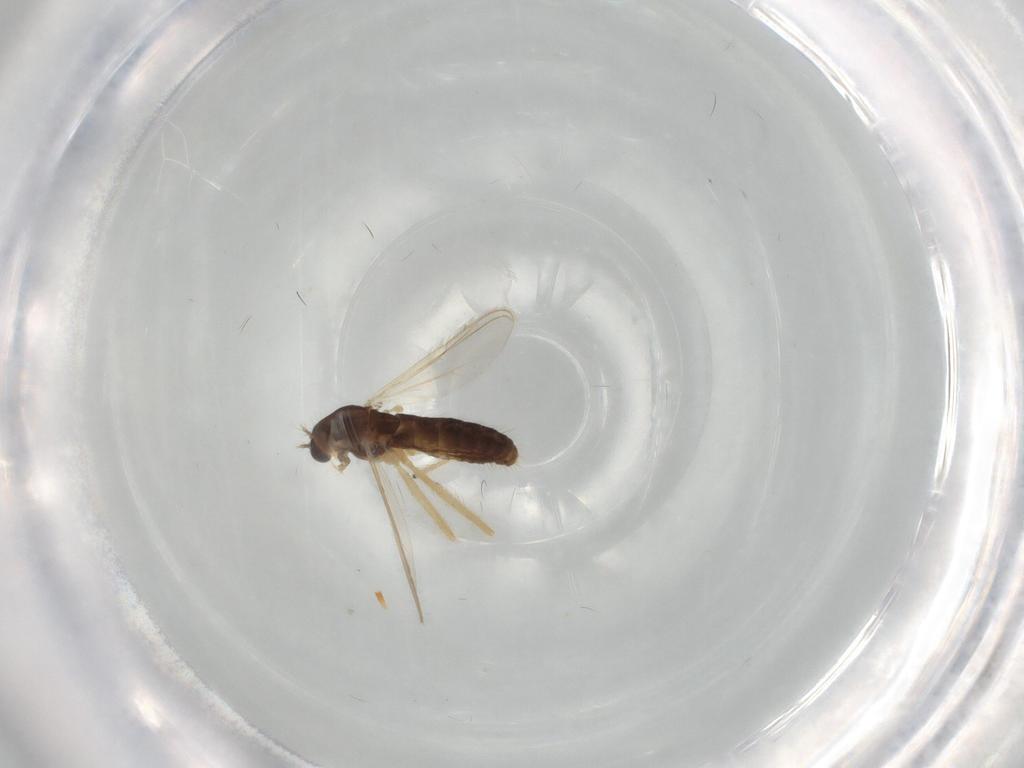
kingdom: Animalia
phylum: Arthropoda
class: Insecta
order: Diptera
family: Chironomidae
